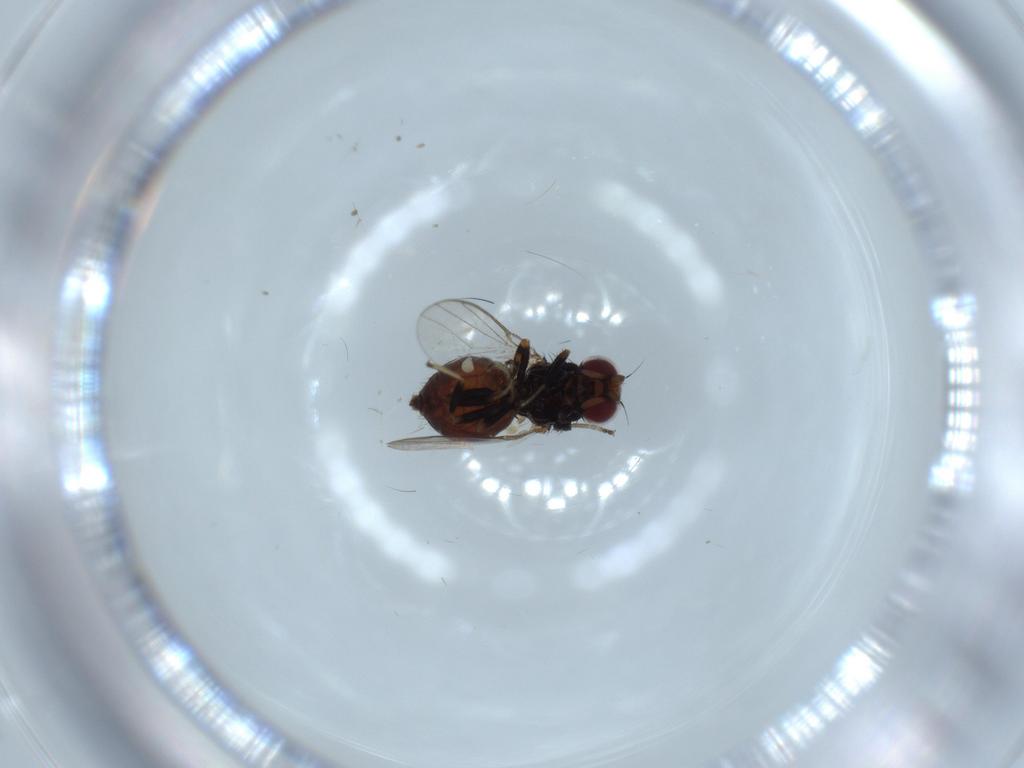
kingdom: Animalia
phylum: Arthropoda
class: Insecta
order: Diptera
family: Chloropidae
